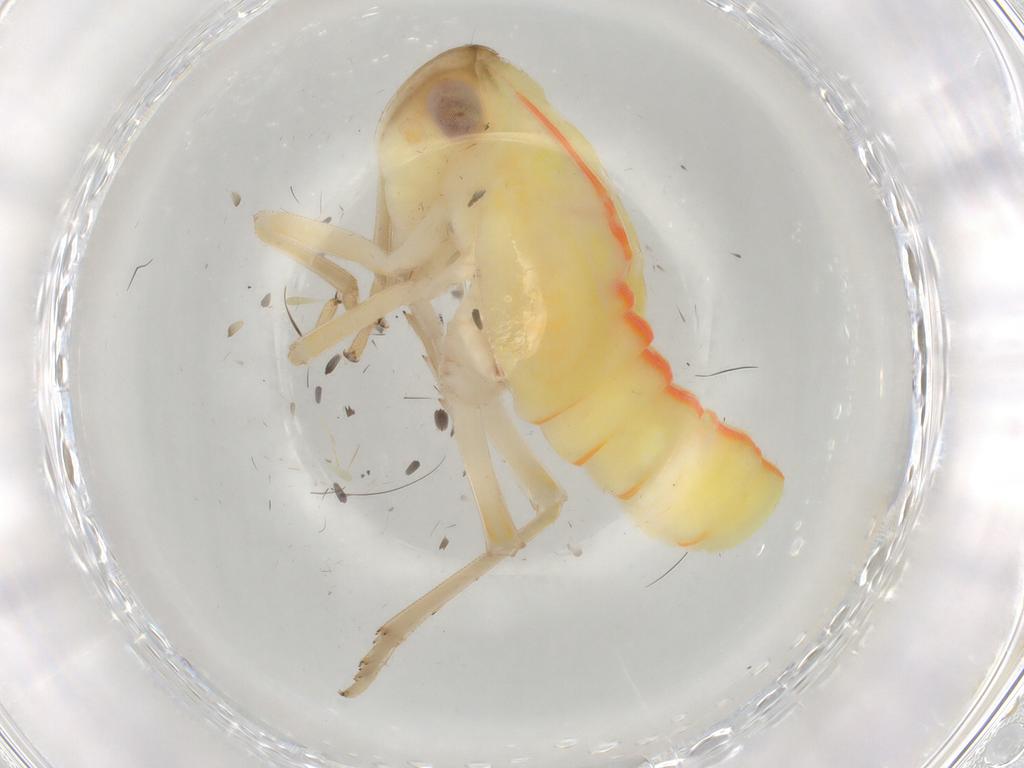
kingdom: Animalia
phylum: Arthropoda
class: Insecta
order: Hemiptera
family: Tropiduchidae
